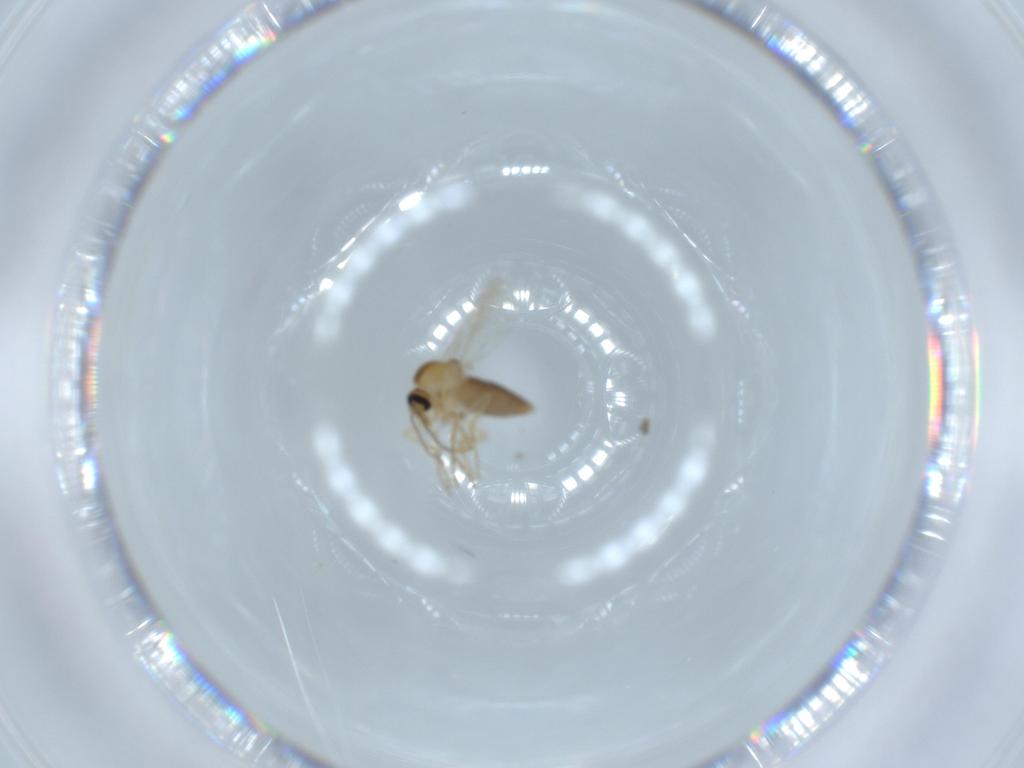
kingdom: Animalia
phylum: Arthropoda
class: Insecta
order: Diptera
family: Ceratopogonidae
